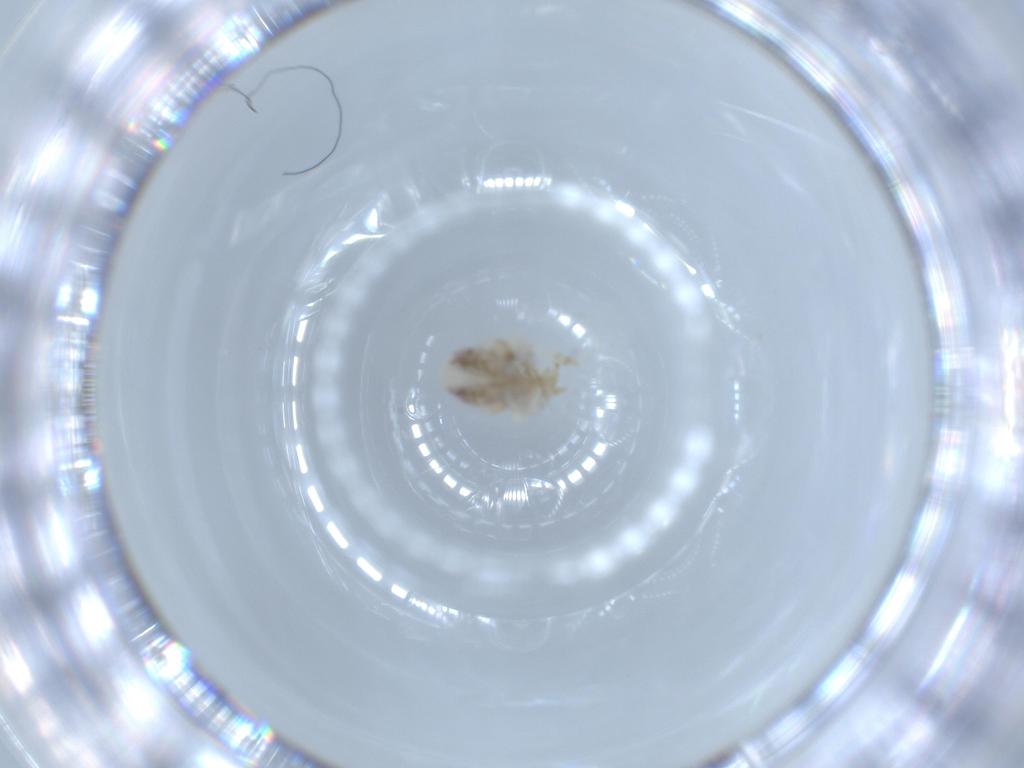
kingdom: Animalia
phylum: Arthropoda
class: Insecta
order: Hemiptera
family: Acanaloniidae
